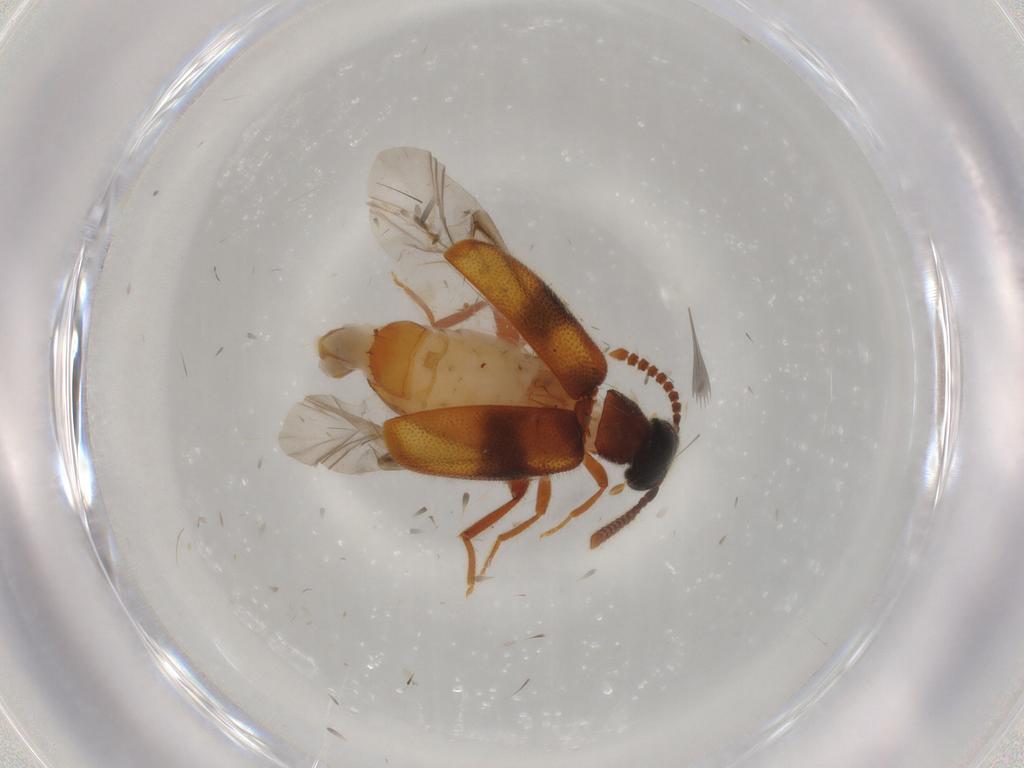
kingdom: Animalia
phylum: Arthropoda
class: Insecta
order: Coleoptera
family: Aderidae
